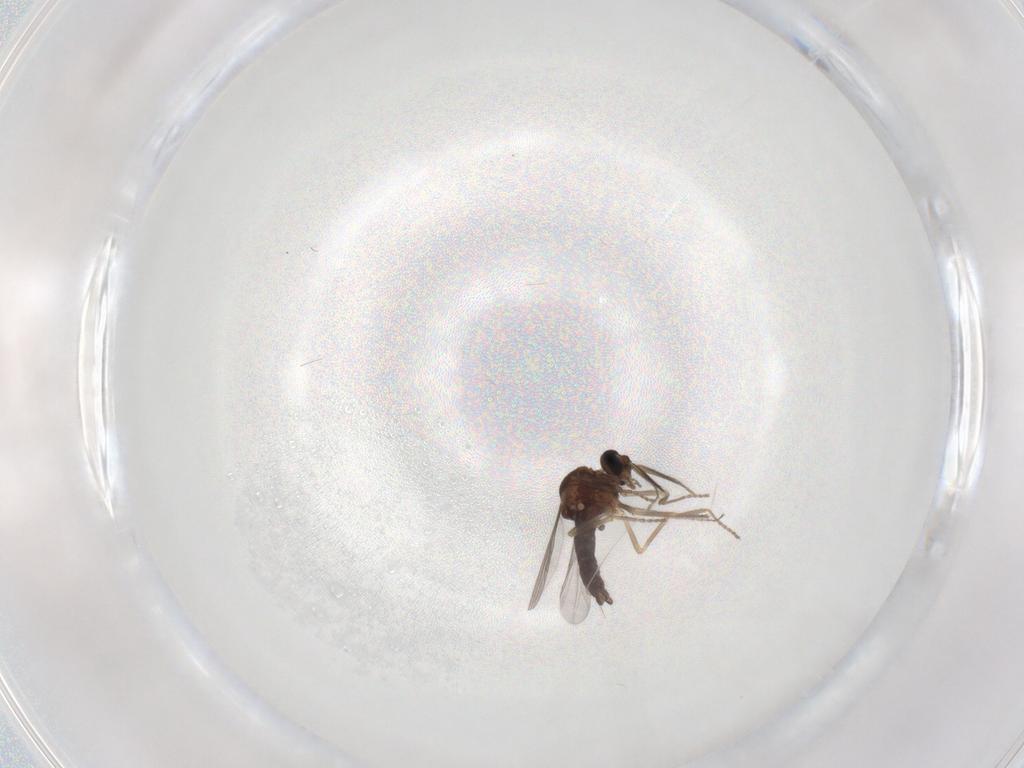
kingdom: Animalia
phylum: Arthropoda
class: Insecta
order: Diptera
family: Ceratopogonidae
